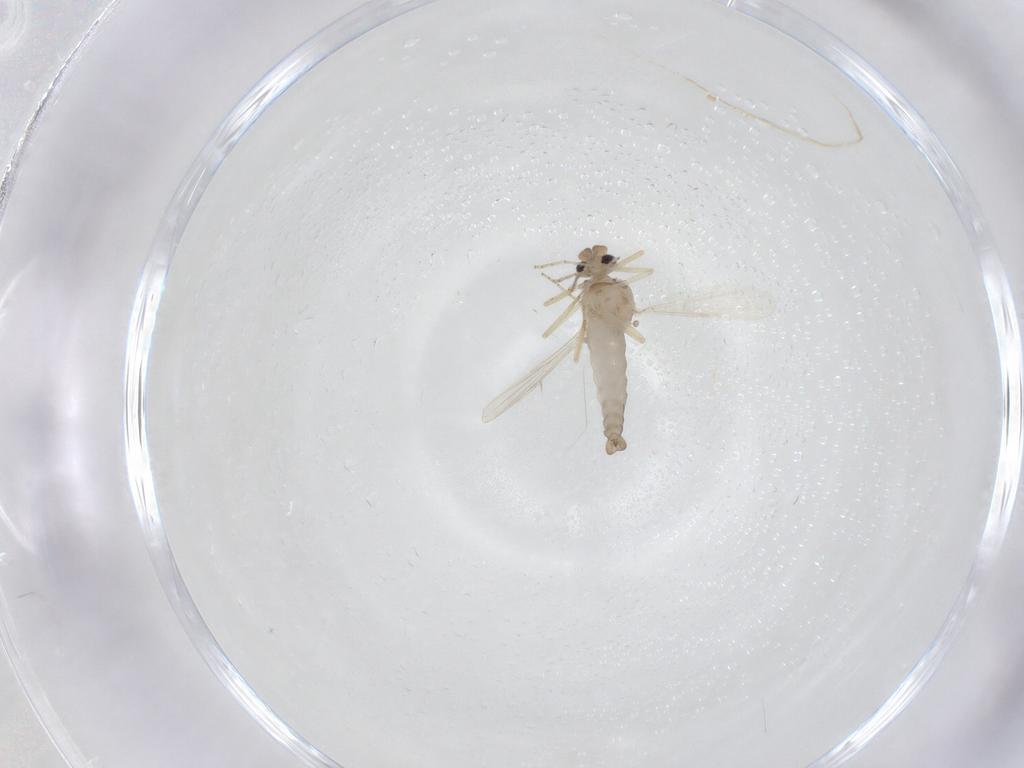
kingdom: Animalia
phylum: Arthropoda
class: Insecta
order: Diptera
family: Ceratopogonidae
